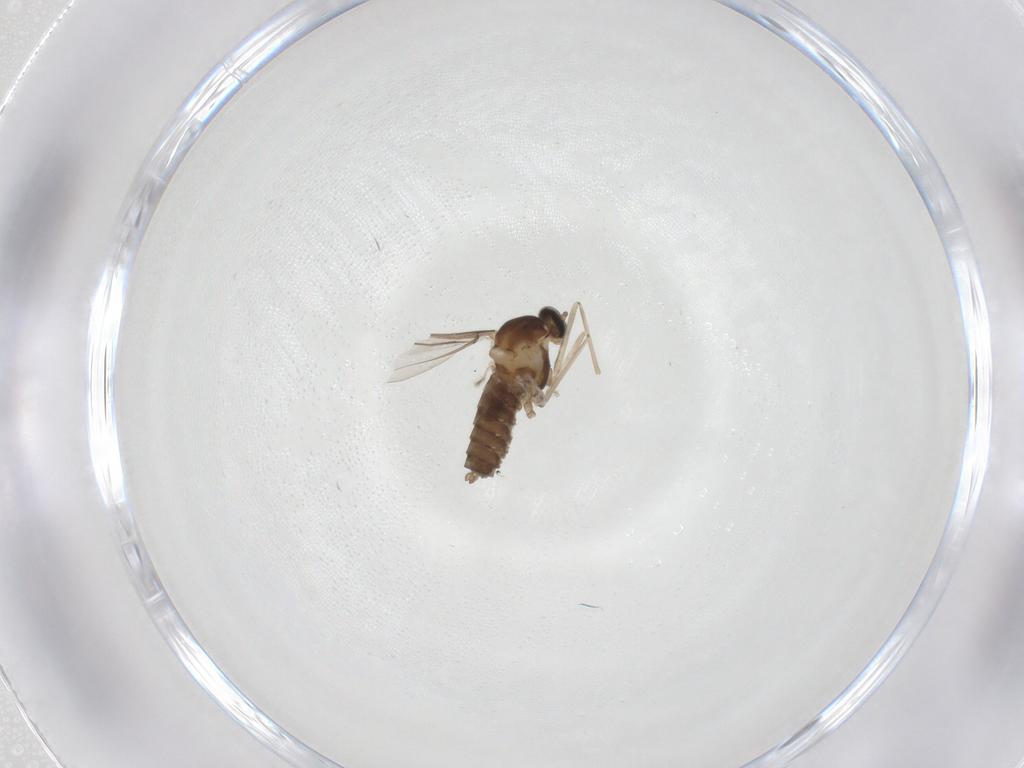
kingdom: Animalia
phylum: Arthropoda
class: Insecta
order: Diptera
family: Cecidomyiidae
